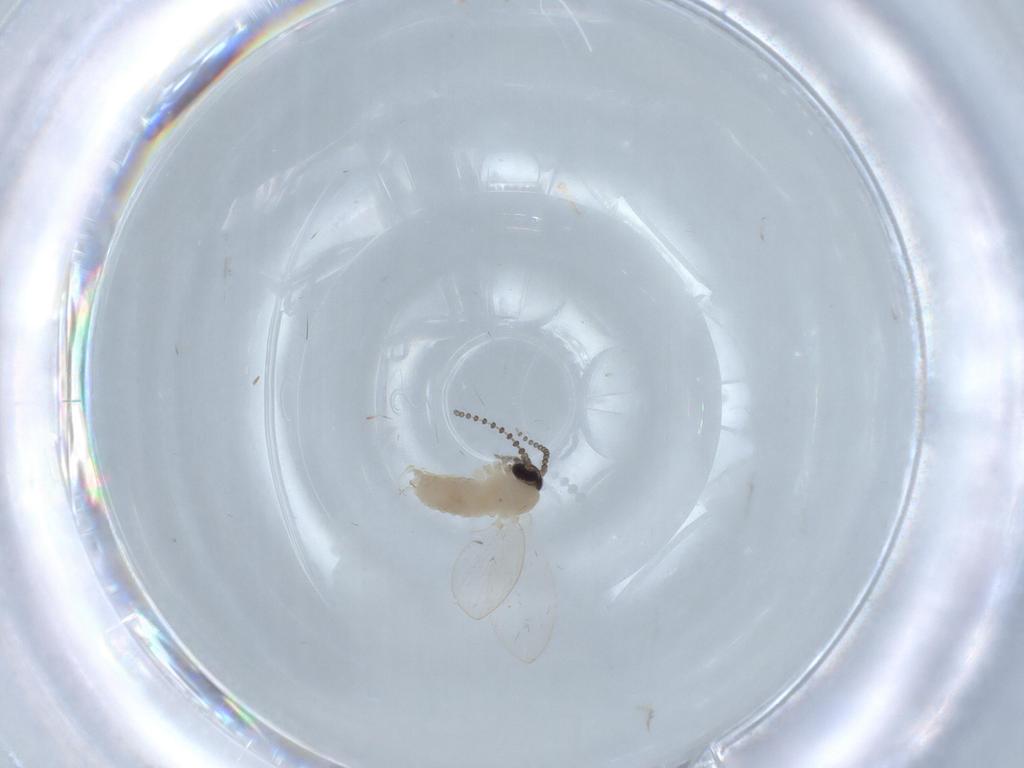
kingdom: Animalia
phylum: Arthropoda
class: Insecta
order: Diptera
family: Psychodidae
